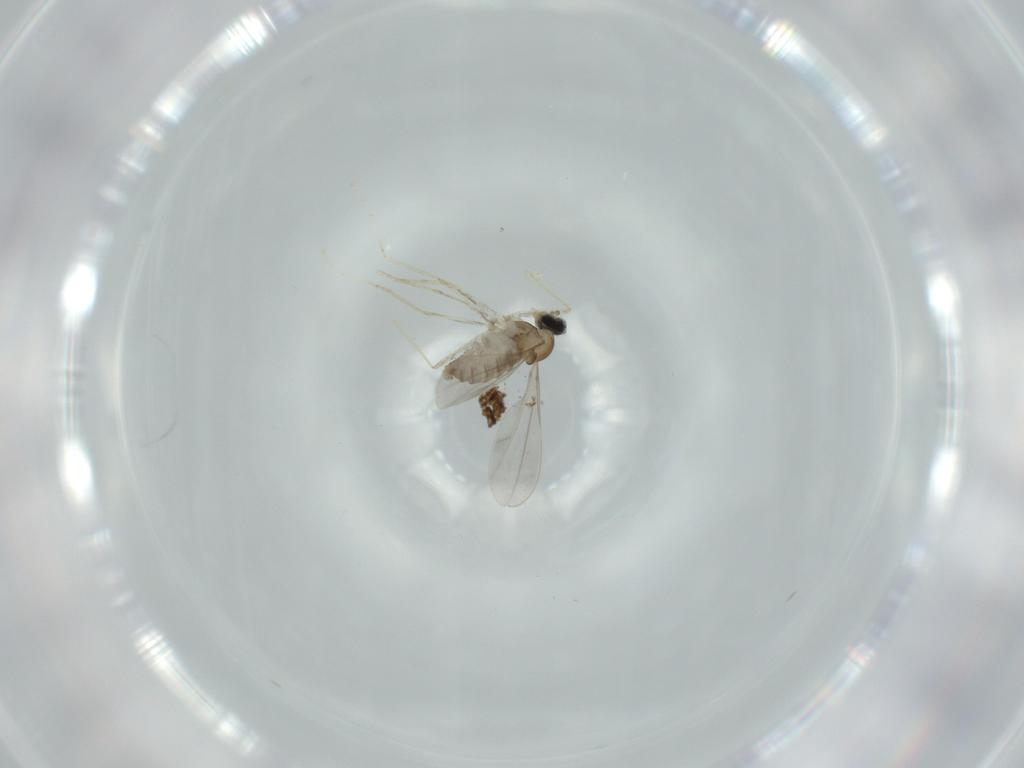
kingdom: Animalia
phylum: Arthropoda
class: Insecta
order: Diptera
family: Cecidomyiidae
